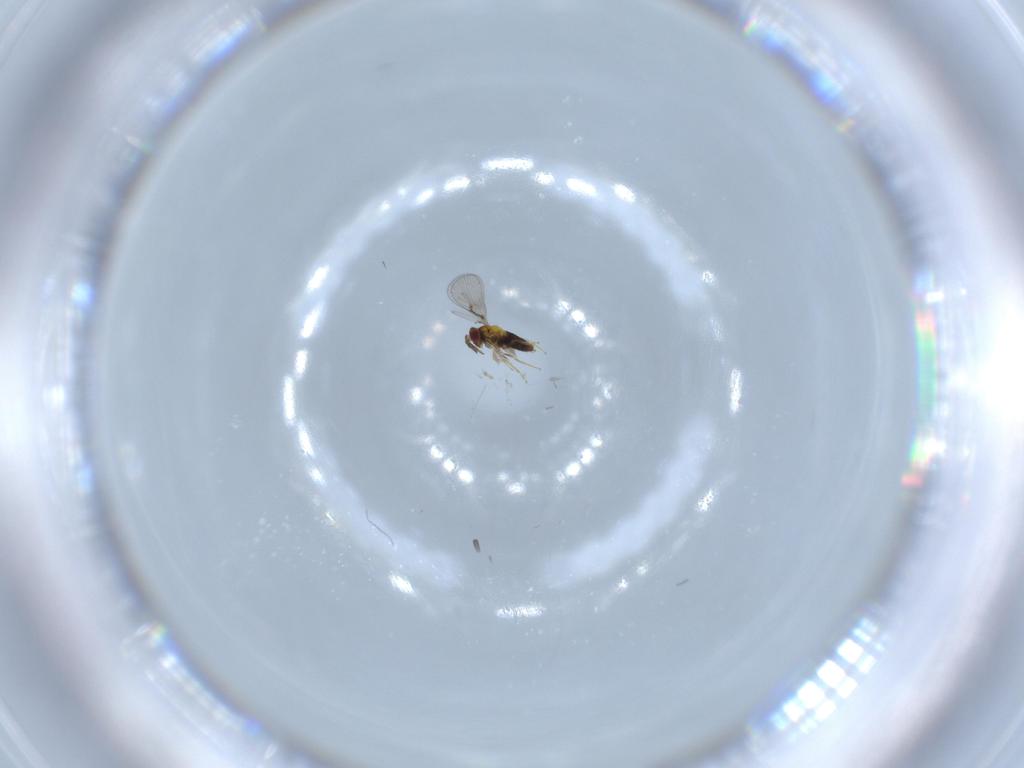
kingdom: Animalia
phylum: Arthropoda
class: Insecta
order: Hymenoptera
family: Trichogrammatidae
